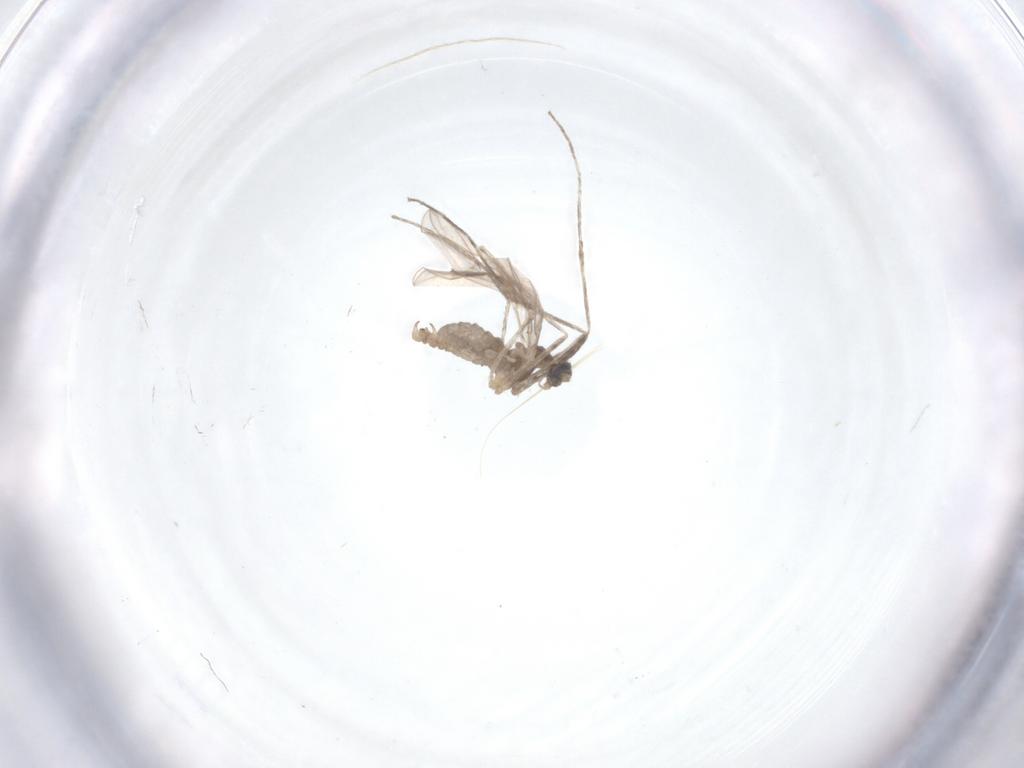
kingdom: Animalia
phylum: Arthropoda
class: Insecta
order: Diptera
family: Cecidomyiidae
